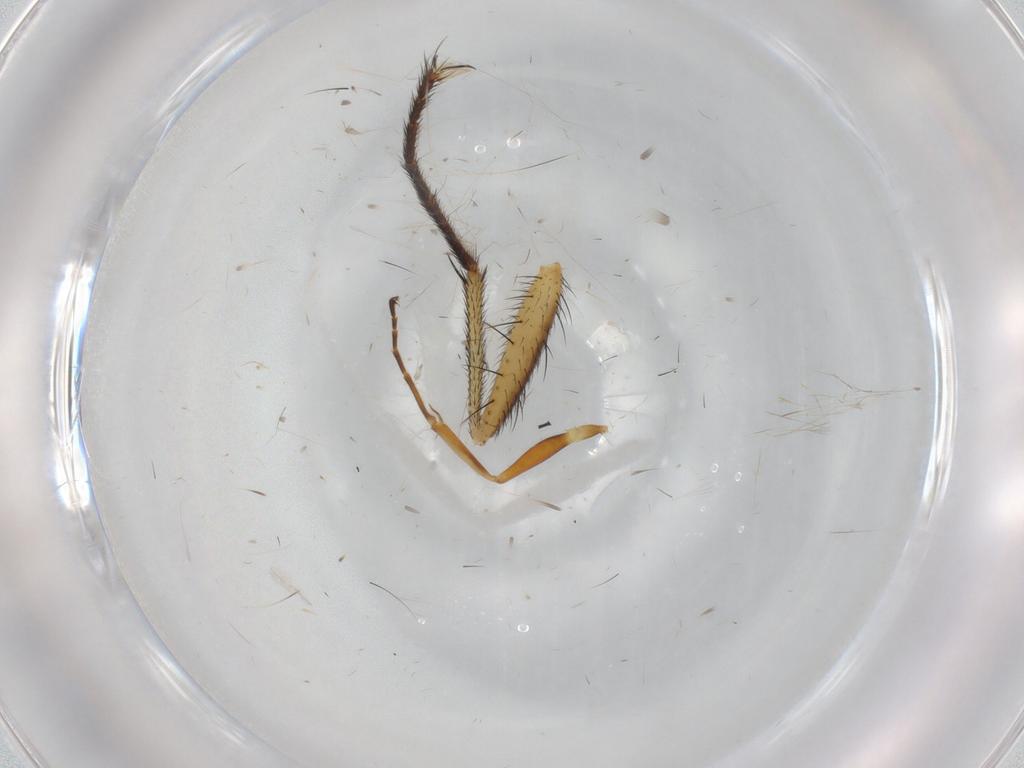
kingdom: Animalia
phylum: Arthropoda
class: Insecta
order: Hymenoptera
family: Ichneumonidae
